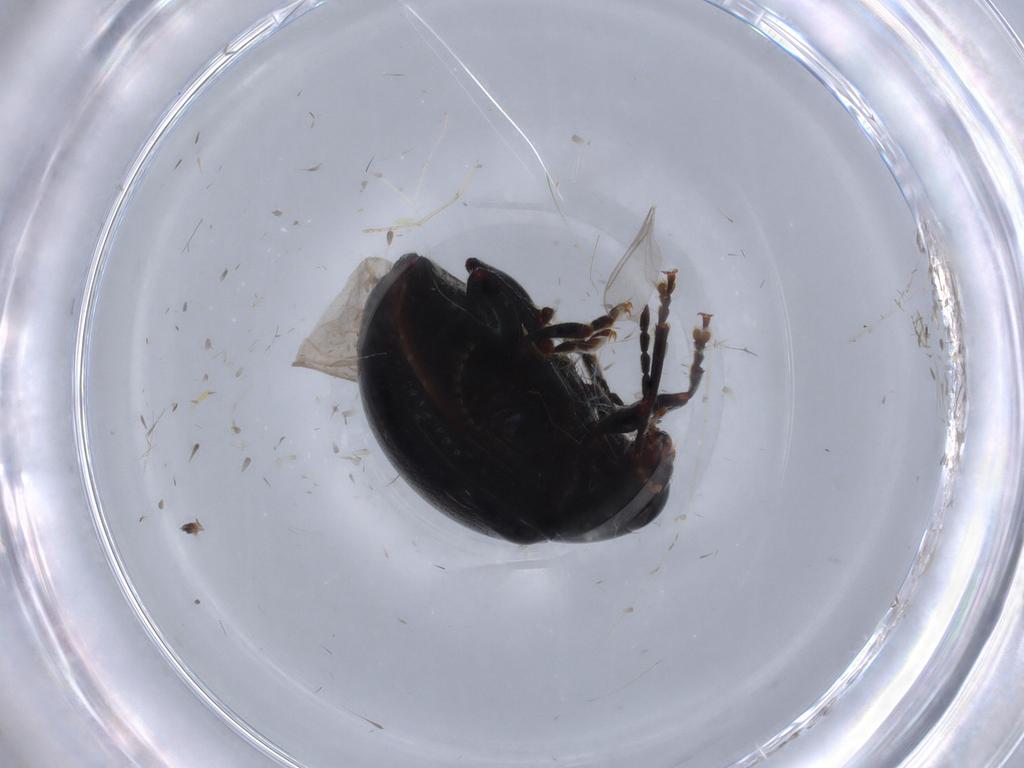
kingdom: Animalia
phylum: Arthropoda
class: Insecta
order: Coleoptera
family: Chrysomelidae
